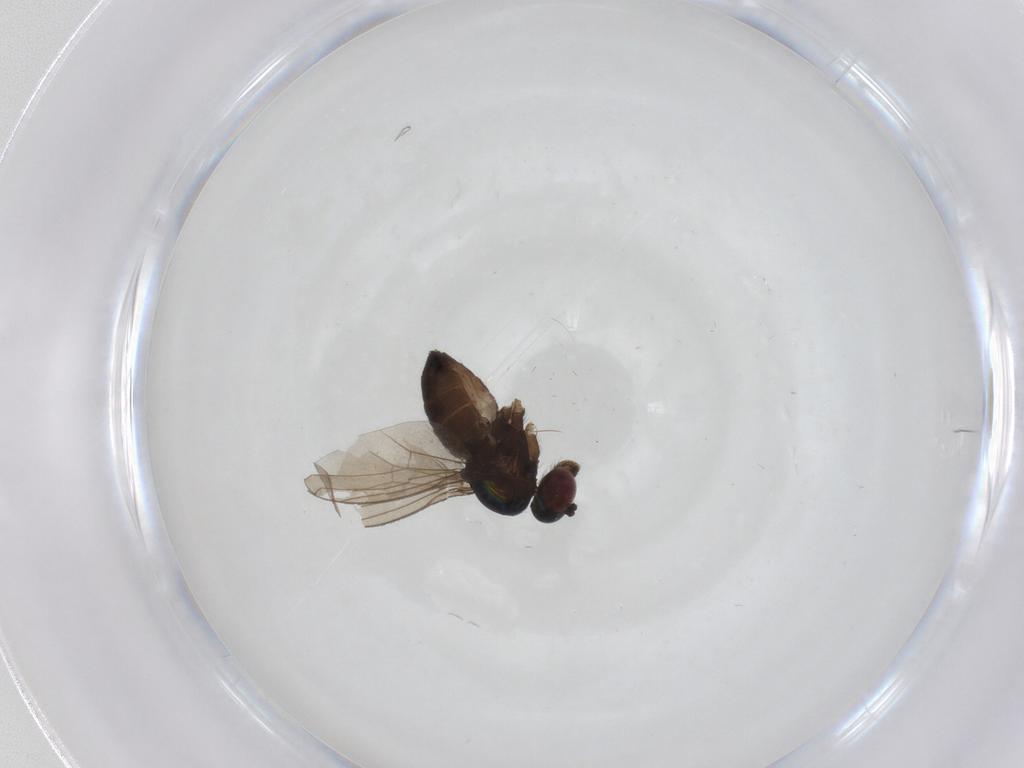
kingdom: Animalia
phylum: Arthropoda
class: Insecta
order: Diptera
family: Dolichopodidae
